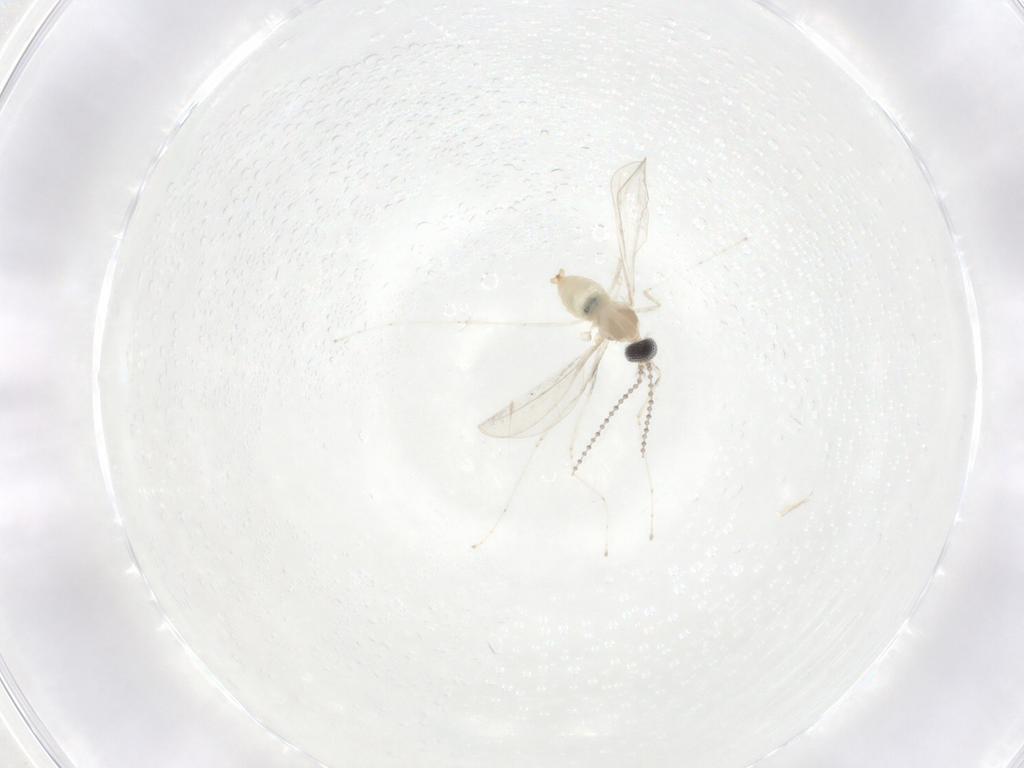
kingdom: Animalia
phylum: Arthropoda
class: Insecta
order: Diptera
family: Cecidomyiidae
